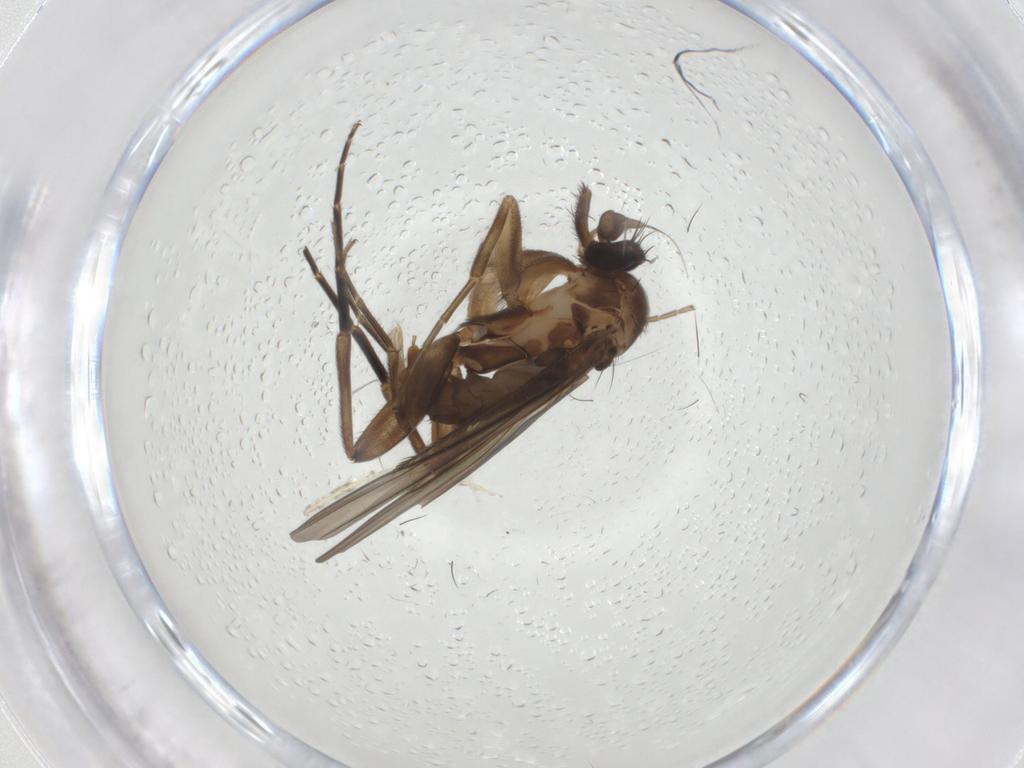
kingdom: Animalia
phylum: Arthropoda
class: Insecta
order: Diptera
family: Phoridae
